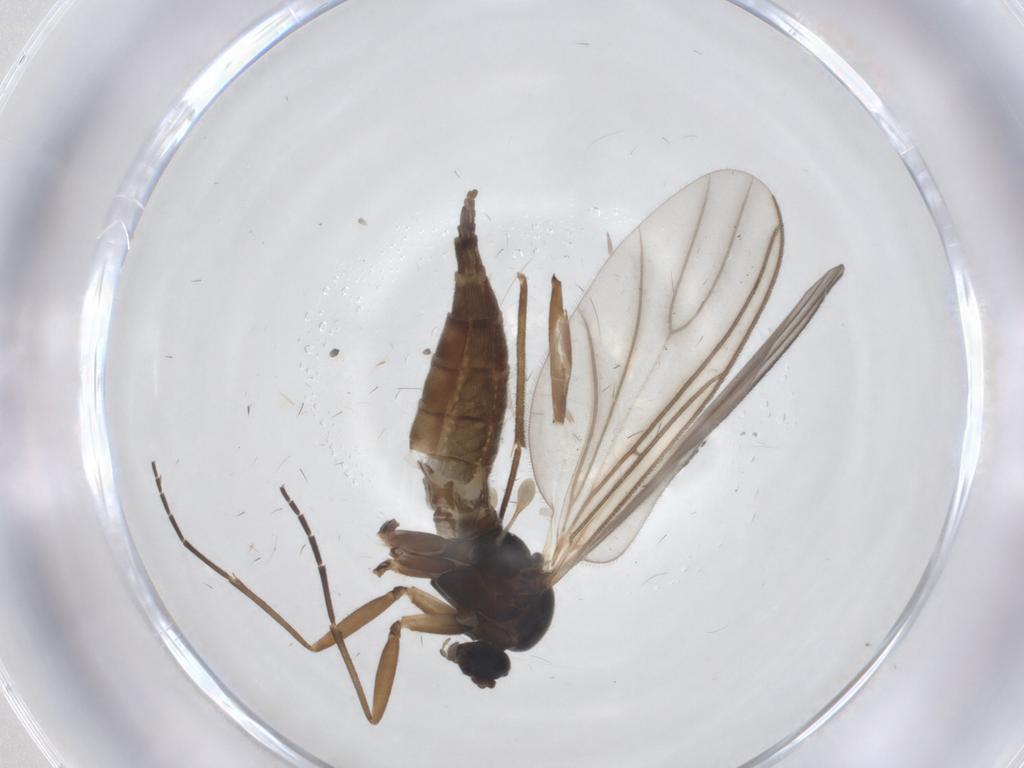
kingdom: Animalia
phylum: Arthropoda
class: Insecta
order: Diptera
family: Sciaridae
